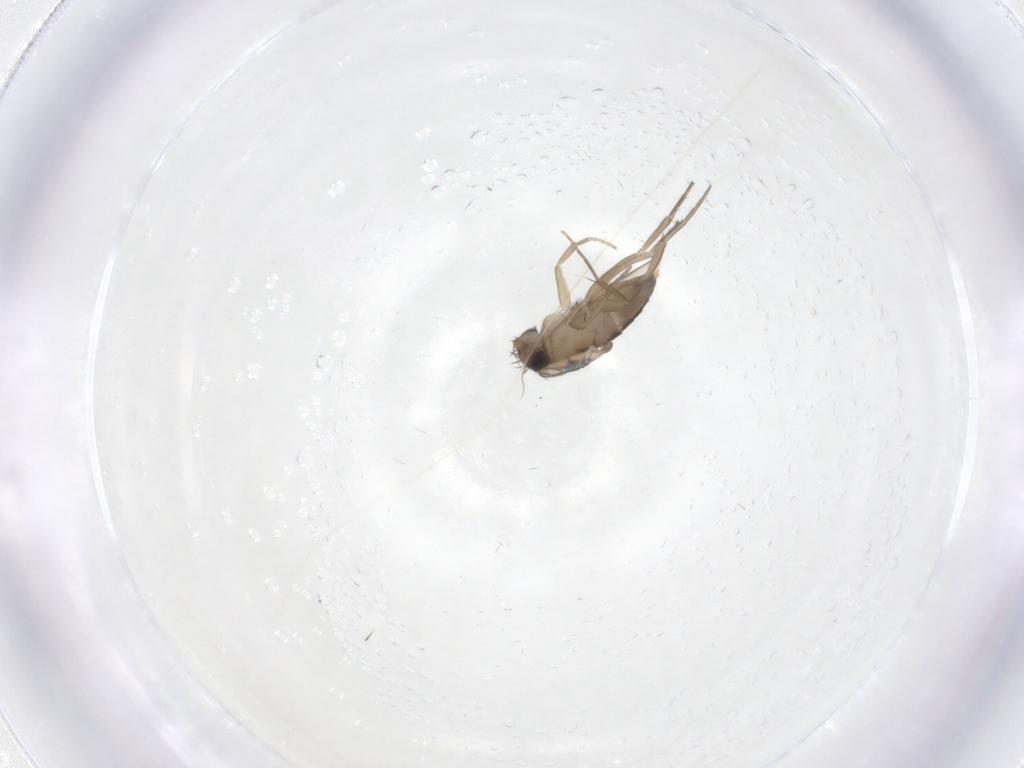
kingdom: Animalia
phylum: Arthropoda
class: Insecta
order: Diptera
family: Phoridae
